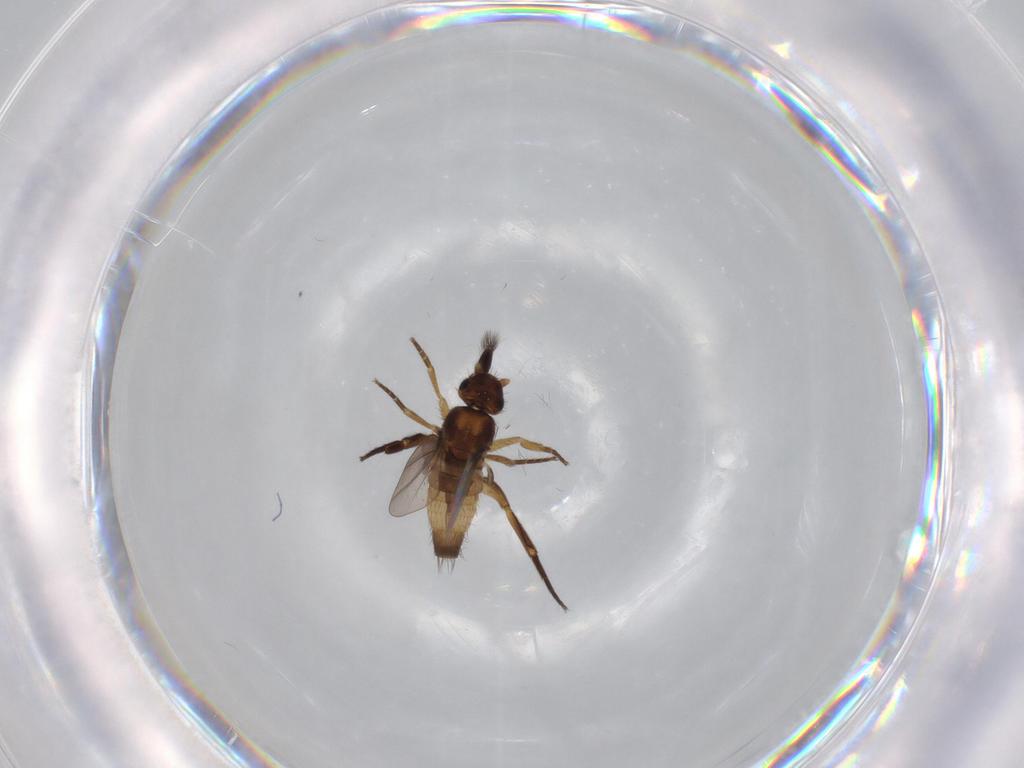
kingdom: Animalia
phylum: Arthropoda
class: Insecta
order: Diptera
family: Phoridae
